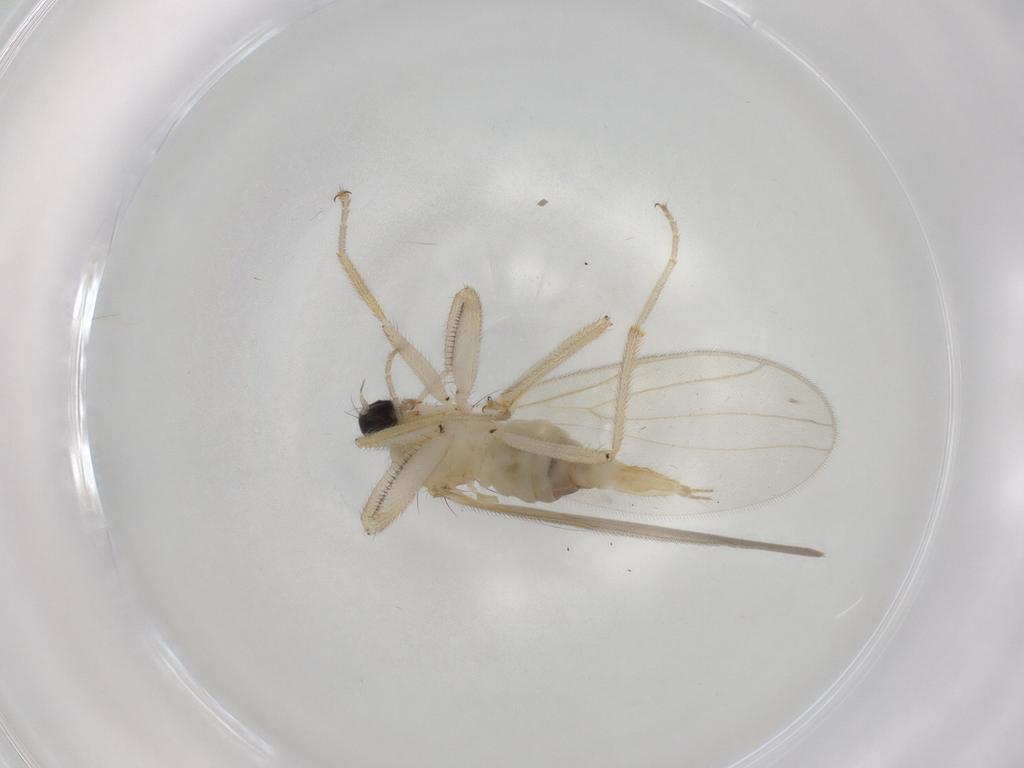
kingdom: Animalia
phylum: Arthropoda
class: Insecta
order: Diptera
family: Hybotidae
